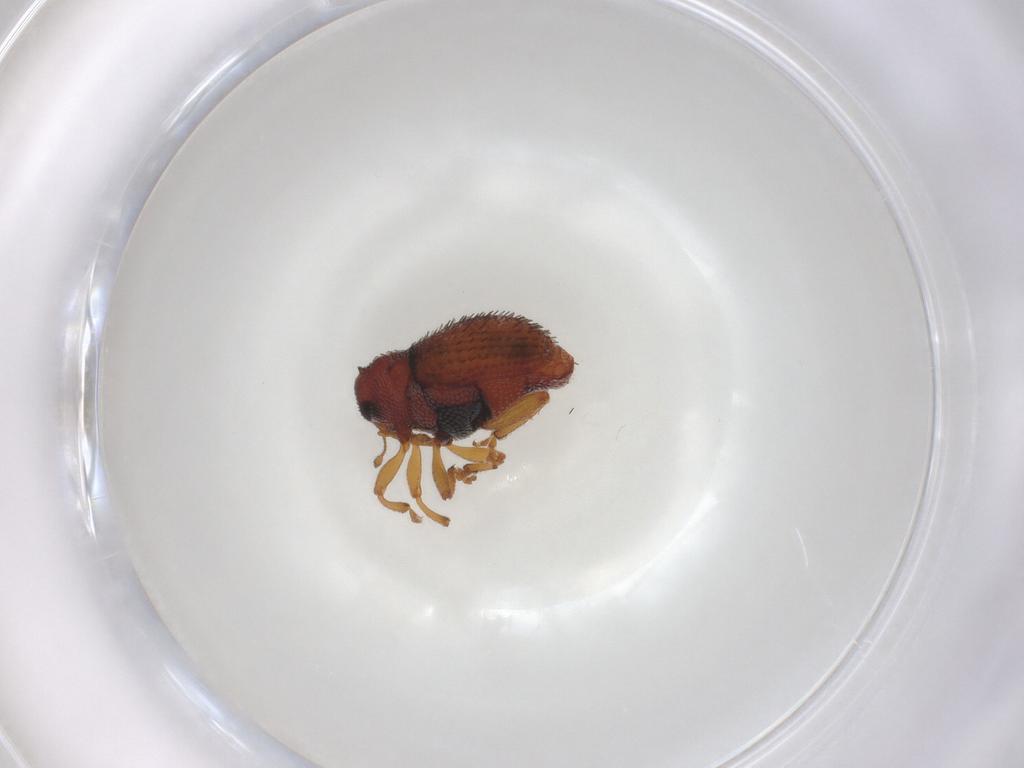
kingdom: Animalia
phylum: Arthropoda
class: Insecta
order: Coleoptera
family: Curculionidae
